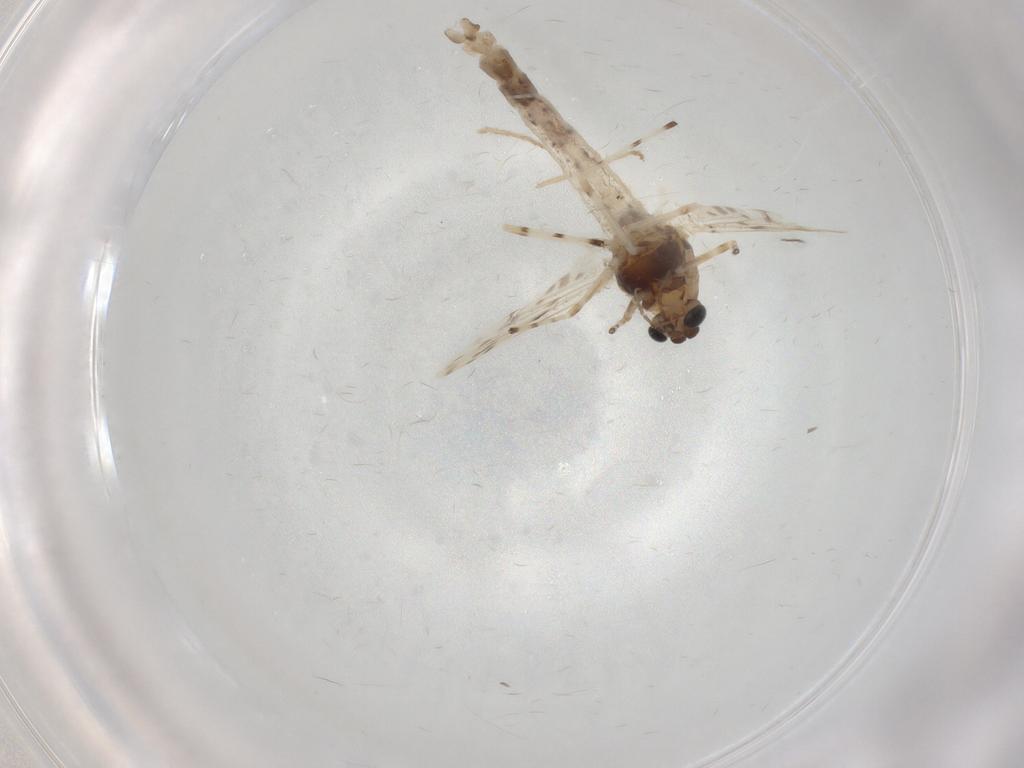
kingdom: Animalia
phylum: Arthropoda
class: Insecta
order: Diptera
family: Chironomidae
